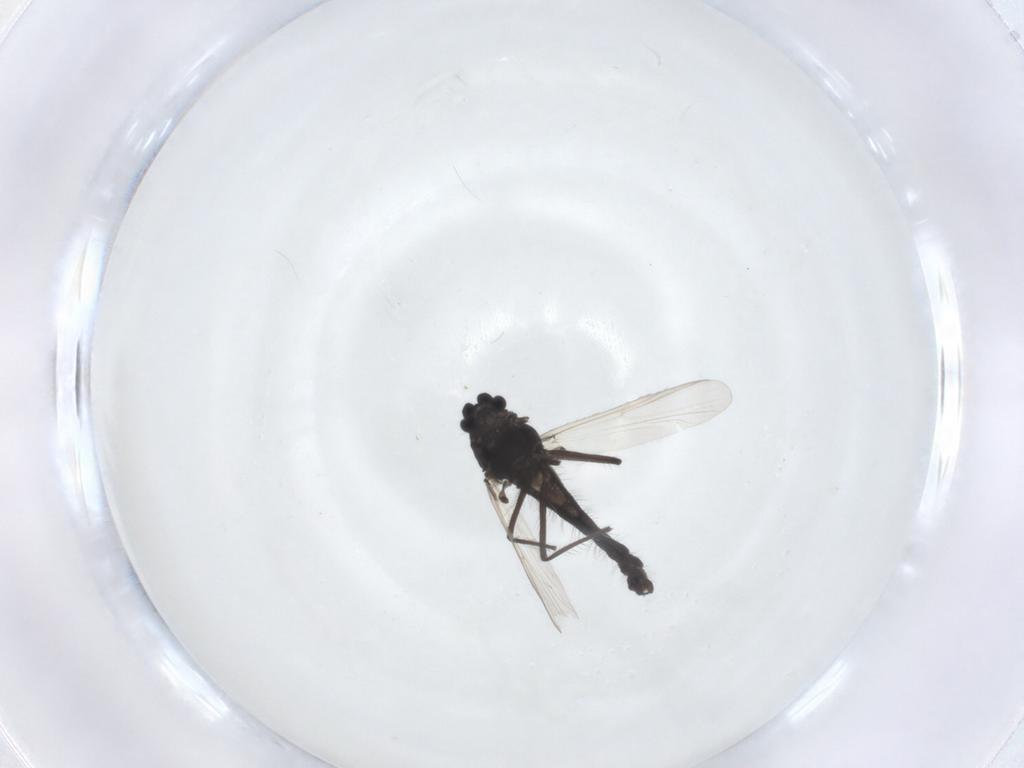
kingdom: Animalia
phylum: Arthropoda
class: Insecta
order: Diptera
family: Chironomidae
